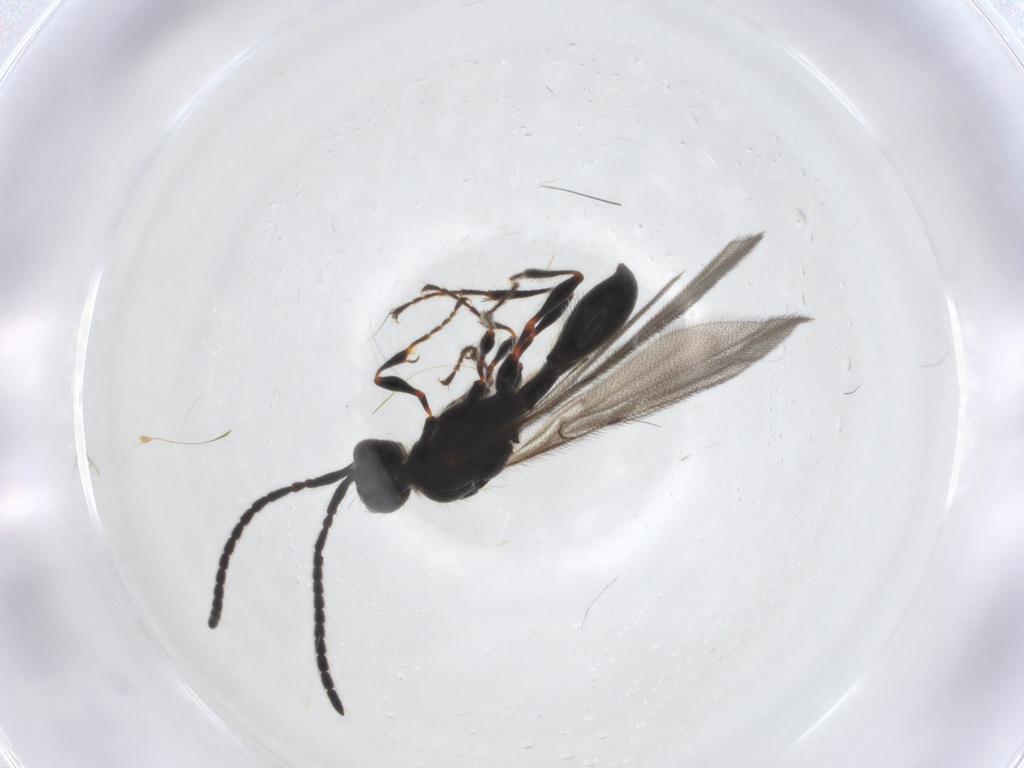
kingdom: Animalia
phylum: Arthropoda
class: Insecta
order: Hymenoptera
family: Diapriidae
